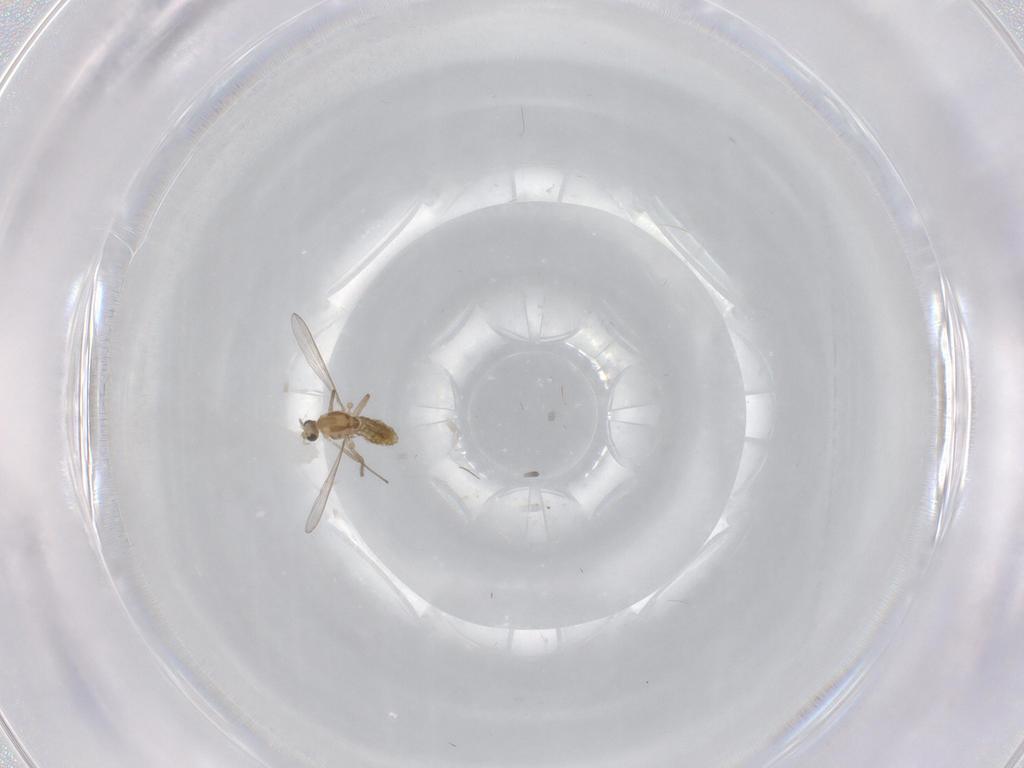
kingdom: Animalia
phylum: Arthropoda
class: Insecta
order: Diptera
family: Chironomidae
